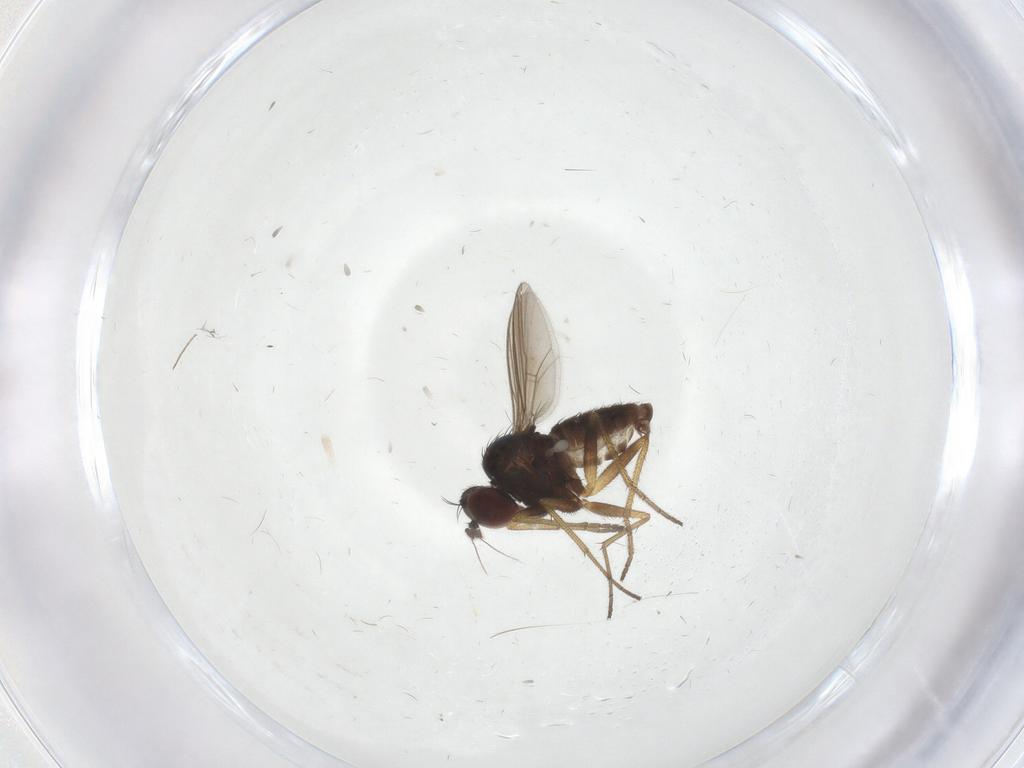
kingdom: Animalia
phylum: Arthropoda
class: Insecta
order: Diptera
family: Dolichopodidae
